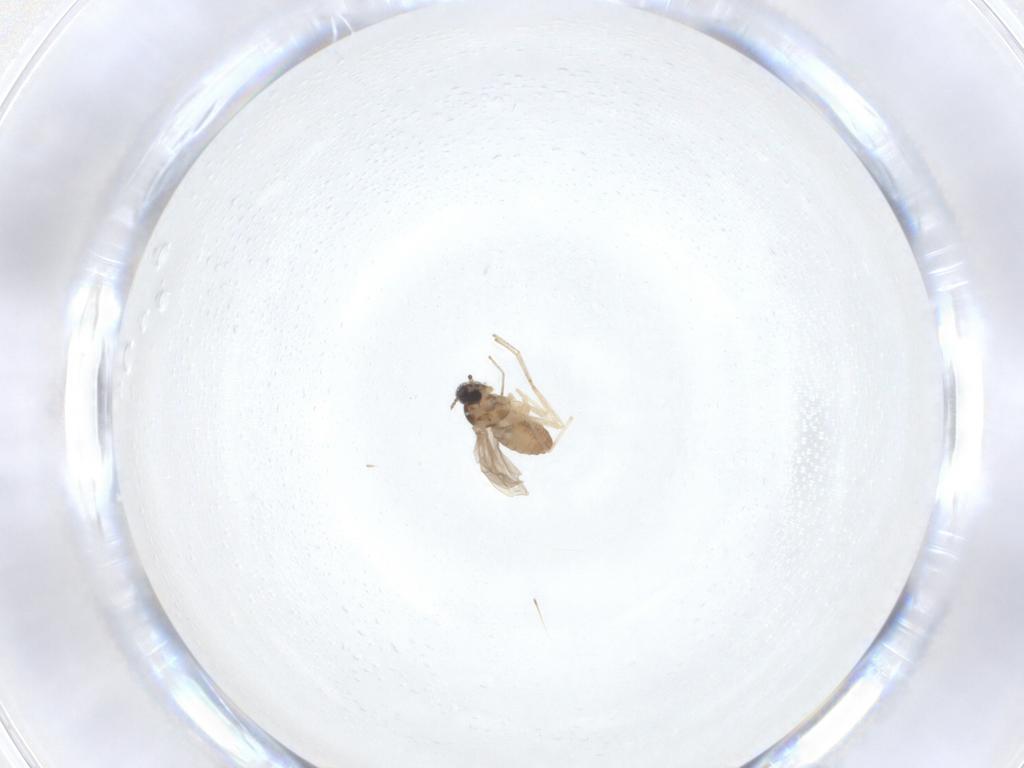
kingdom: Animalia
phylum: Arthropoda
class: Insecta
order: Diptera
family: Cecidomyiidae
